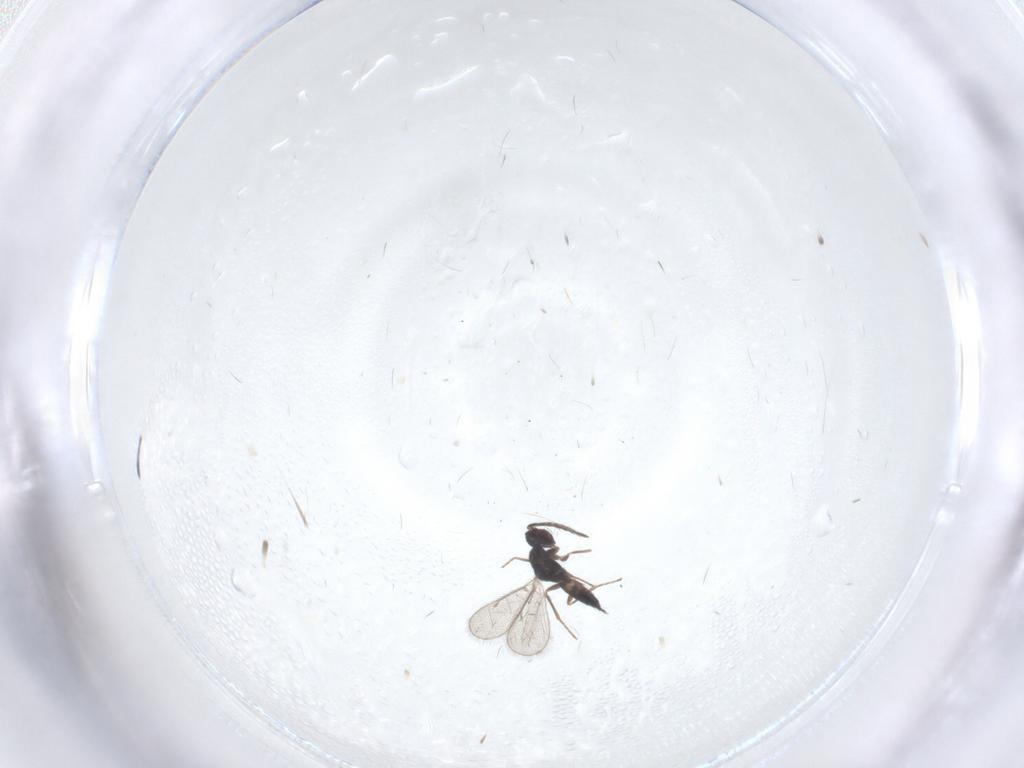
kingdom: Animalia
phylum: Arthropoda
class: Insecta
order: Hymenoptera
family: Eulophidae
